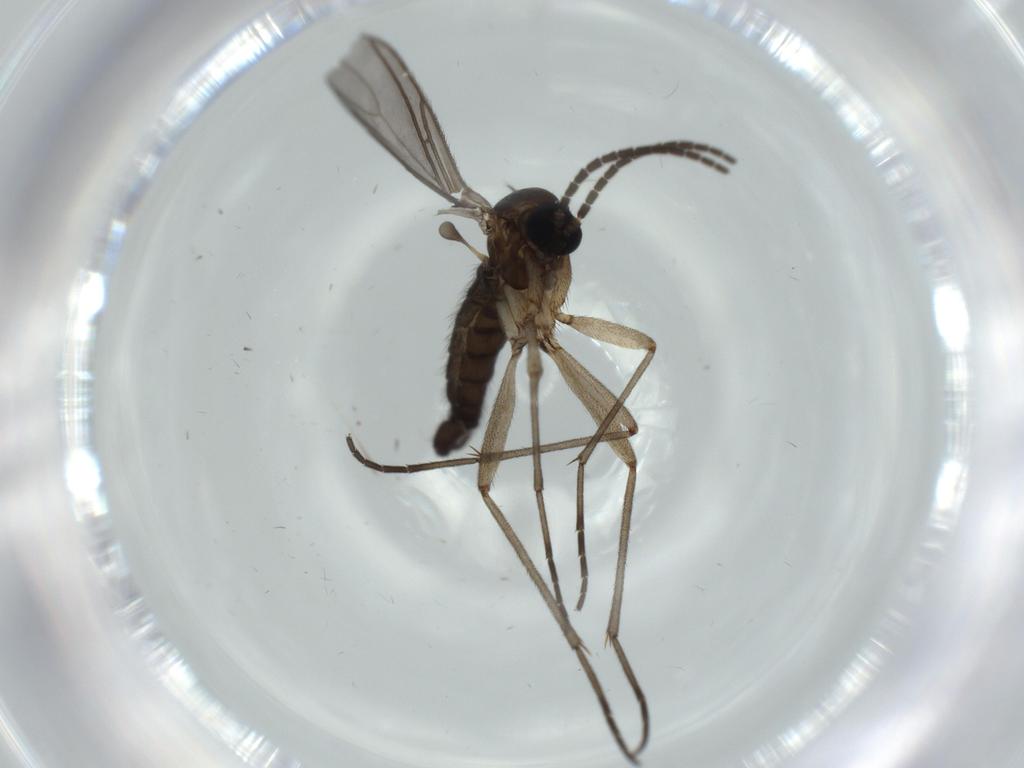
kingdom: Animalia
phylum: Arthropoda
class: Insecta
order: Diptera
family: Sciaridae
